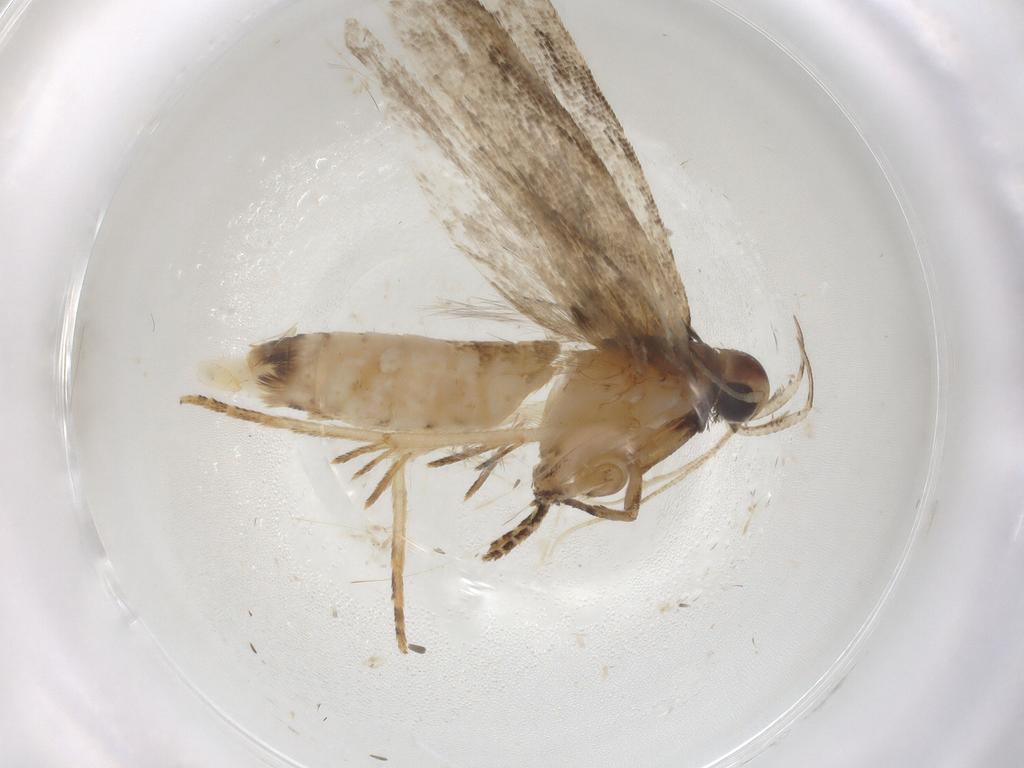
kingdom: Animalia
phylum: Arthropoda
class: Insecta
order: Lepidoptera
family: Crambidae
